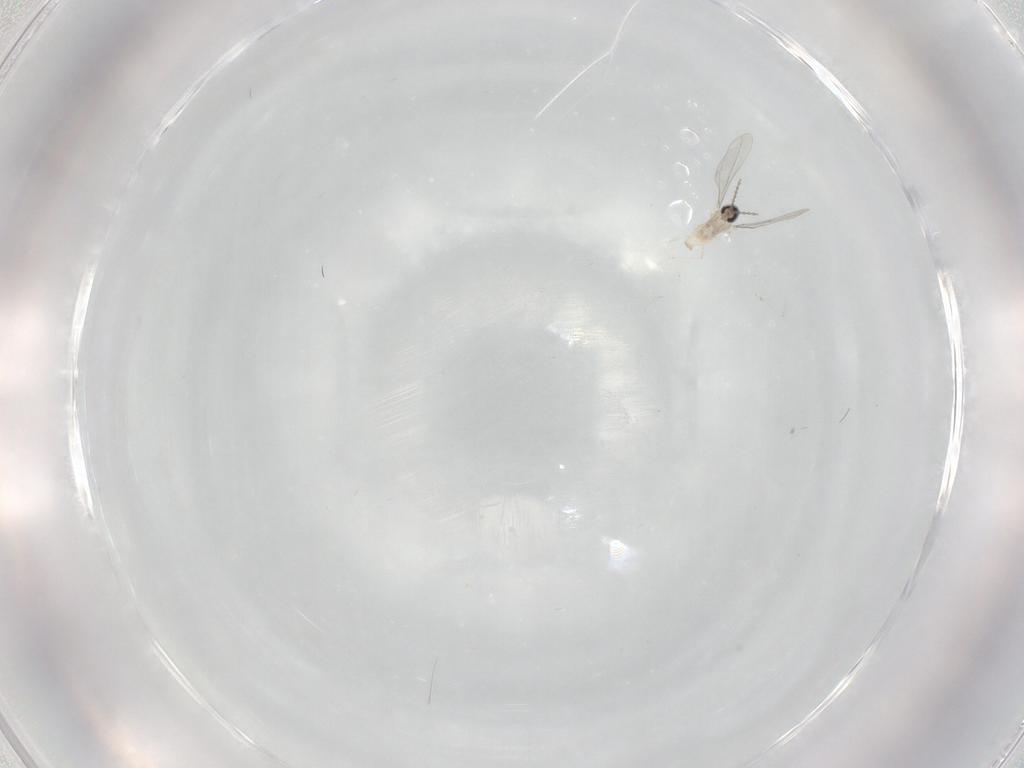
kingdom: Animalia
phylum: Arthropoda
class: Insecta
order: Diptera
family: Cecidomyiidae
